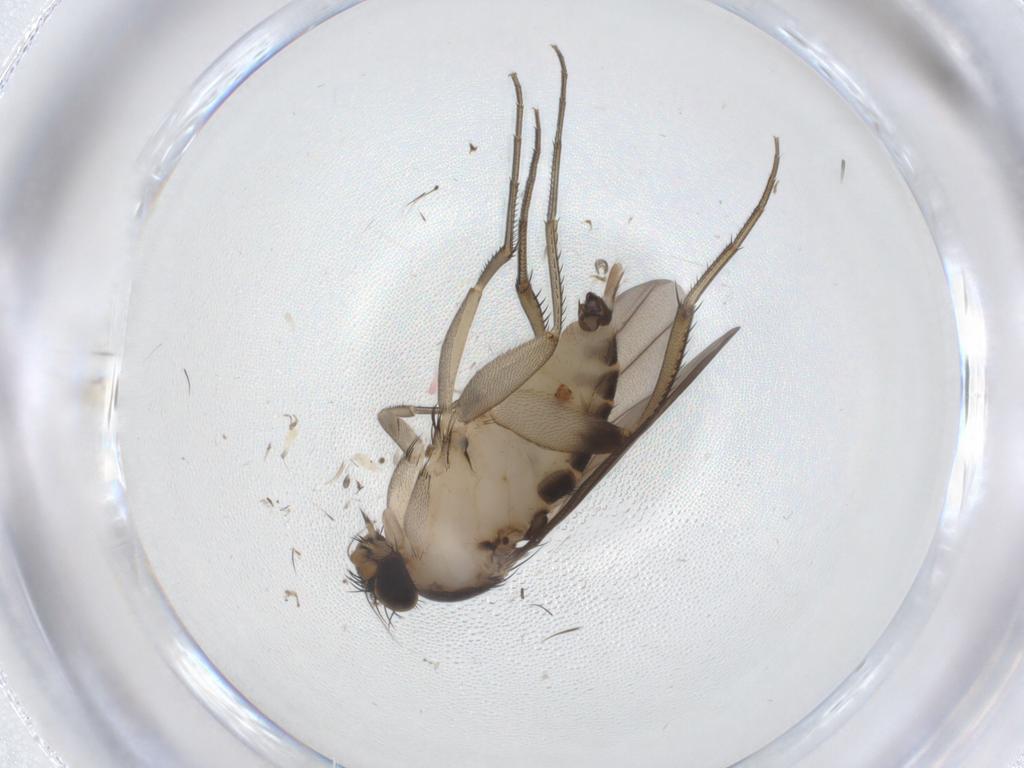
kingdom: Animalia
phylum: Arthropoda
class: Insecta
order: Diptera
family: Phoridae
